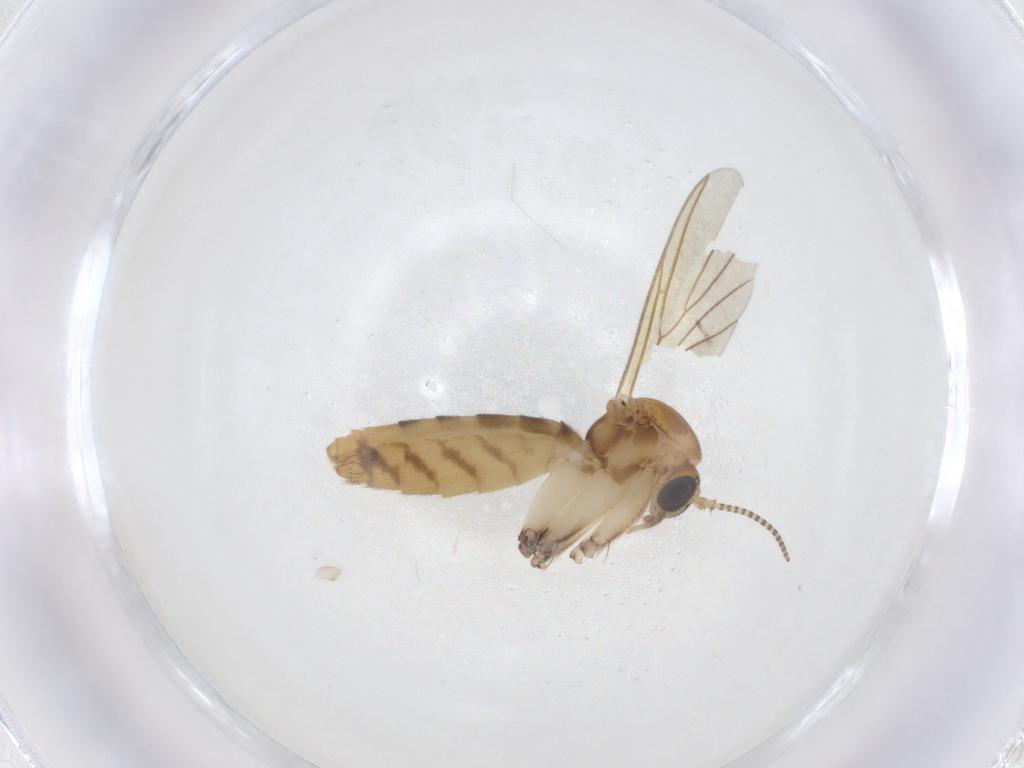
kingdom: Animalia
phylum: Arthropoda
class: Insecta
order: Diptera
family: Mycetophilidae
